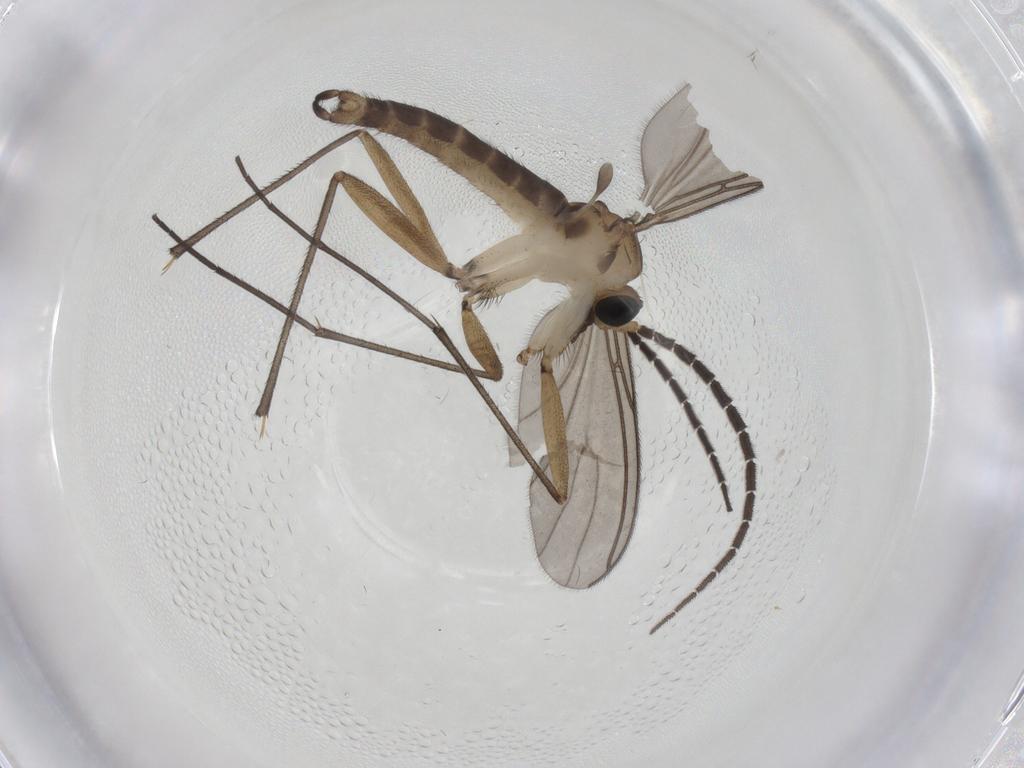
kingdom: Animalia
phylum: Arthropoda
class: Insecta
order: Diptera
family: Sciaridae
